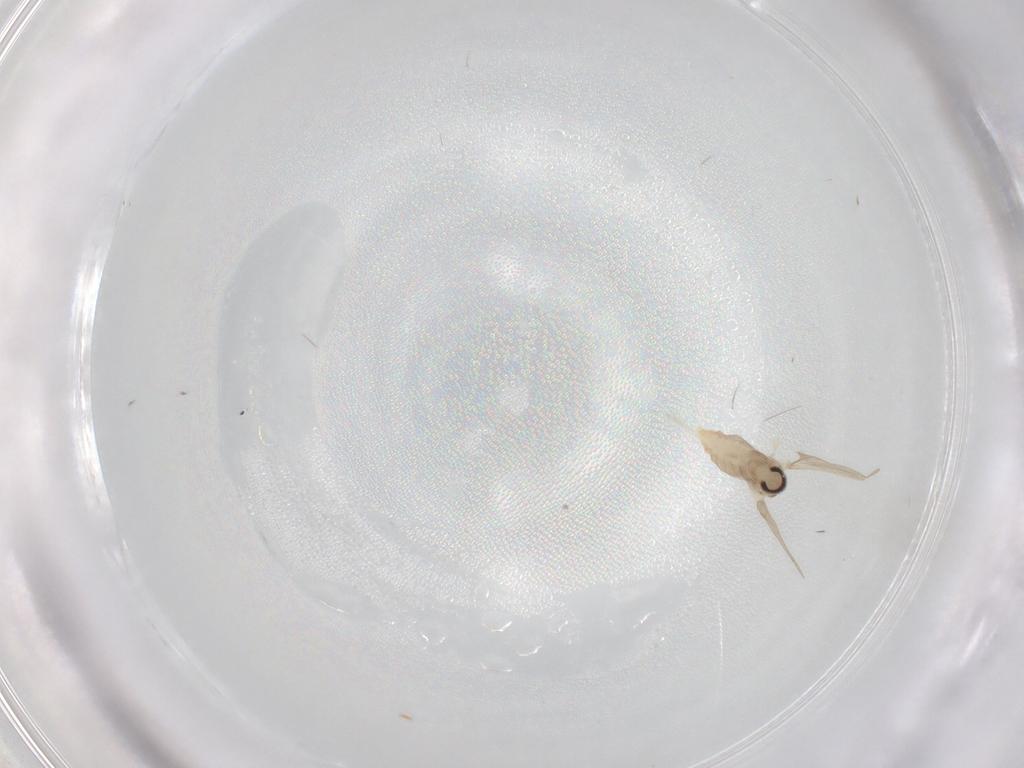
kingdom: Animalia
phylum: Arthropoda
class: Insecta
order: Diptera
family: Cecidomyiidae
